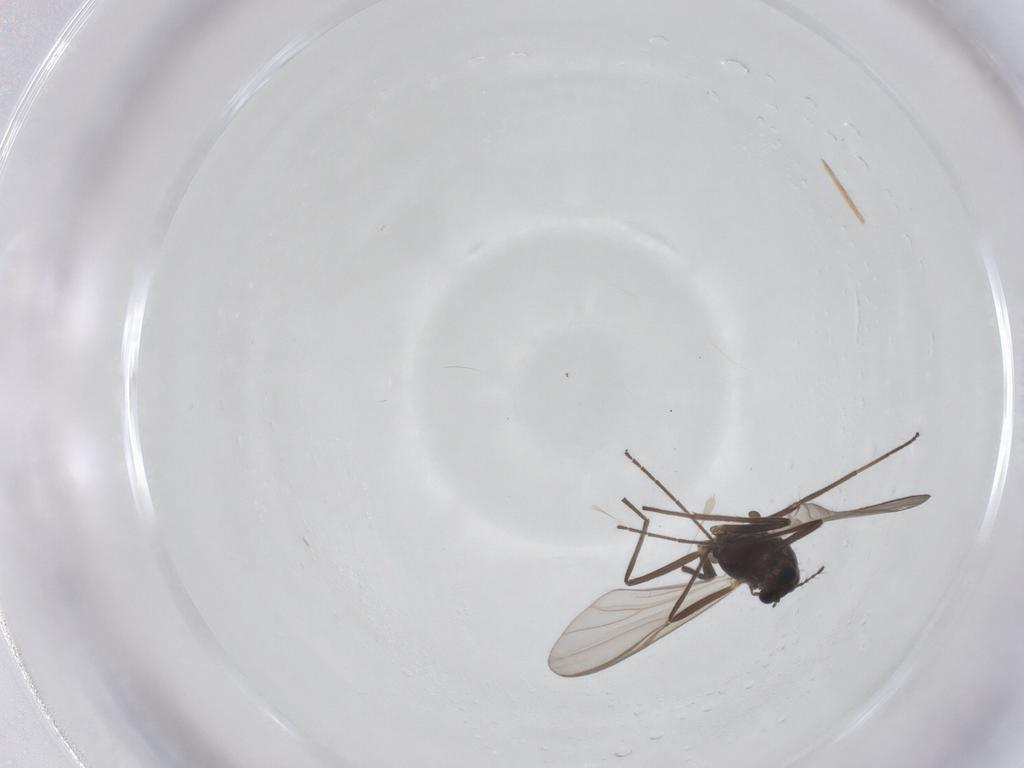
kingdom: Animalia
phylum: Arthropoda
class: Insecta
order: Diptera
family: Chironomidae
